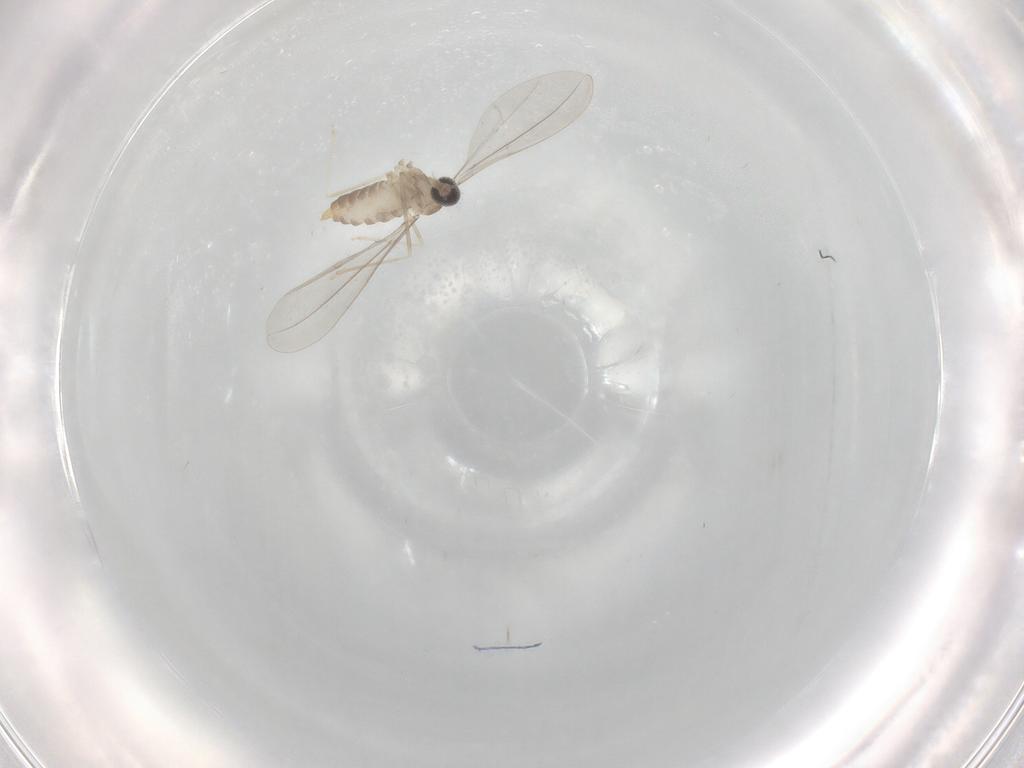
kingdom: Animalia
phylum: Arthropoda
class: Insecta
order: Diptera
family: Cecidomyiidae
